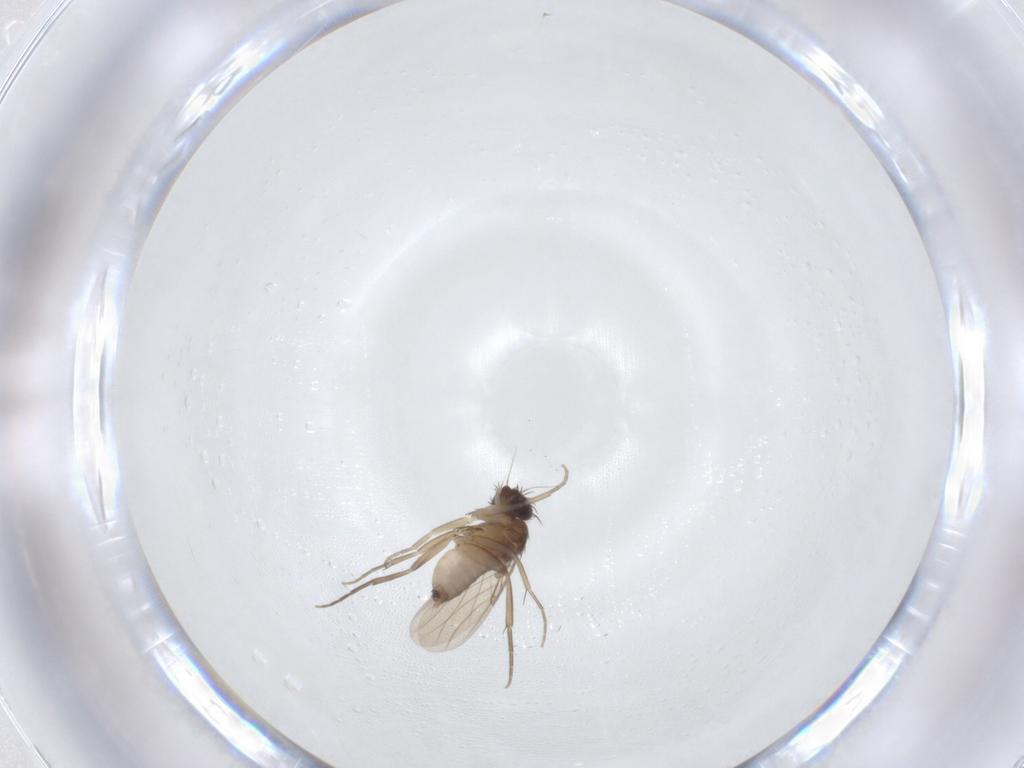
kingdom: Animalia
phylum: Arthropoda
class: Insecta
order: Diptera
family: Phoridae
